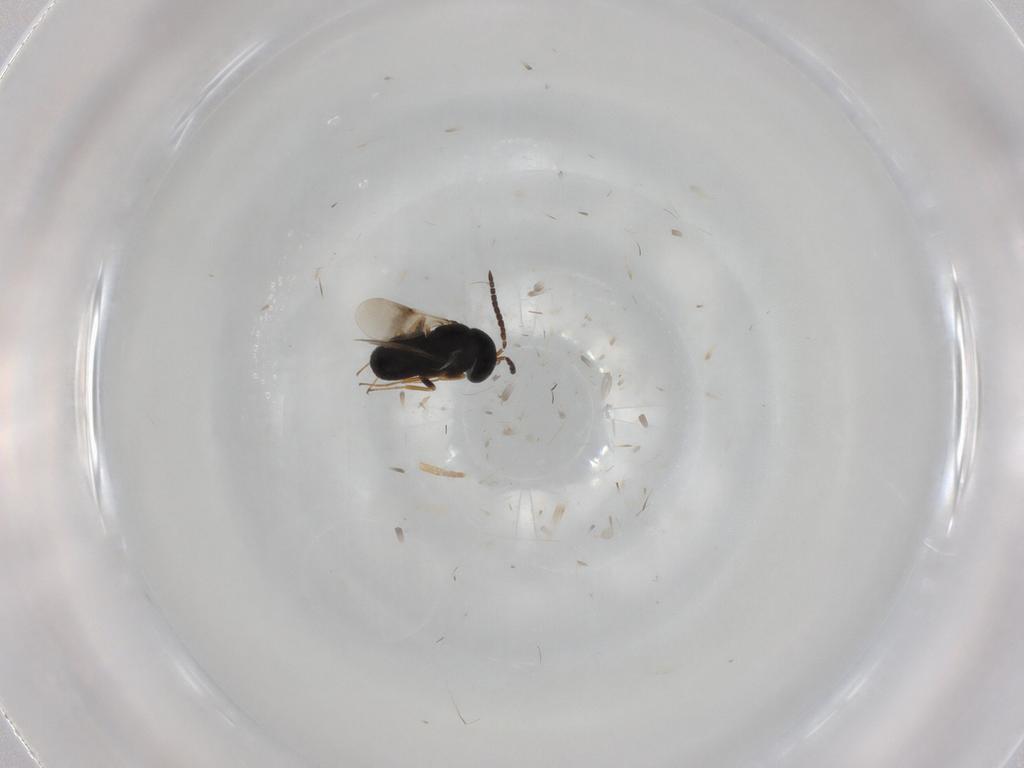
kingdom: Animalia
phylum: Arthropoda
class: Insecta
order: Hymenoptera
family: Scelionidae
